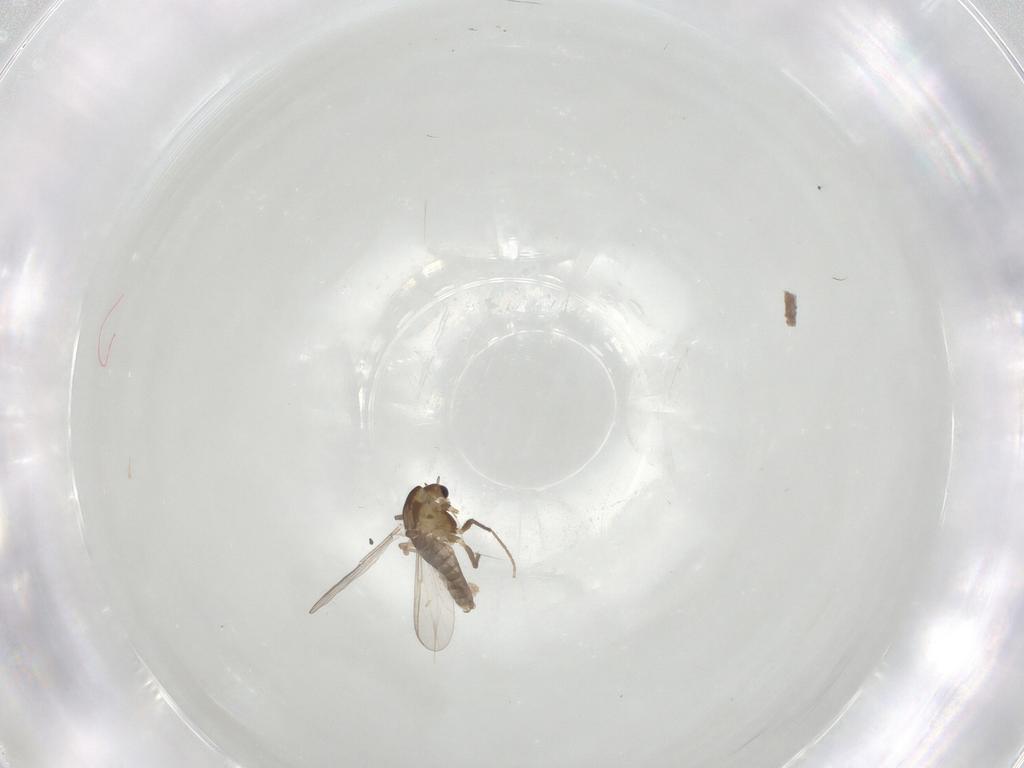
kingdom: Animalia
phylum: Arthropoda
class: Insecta
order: Diptera
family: Chironomidae
